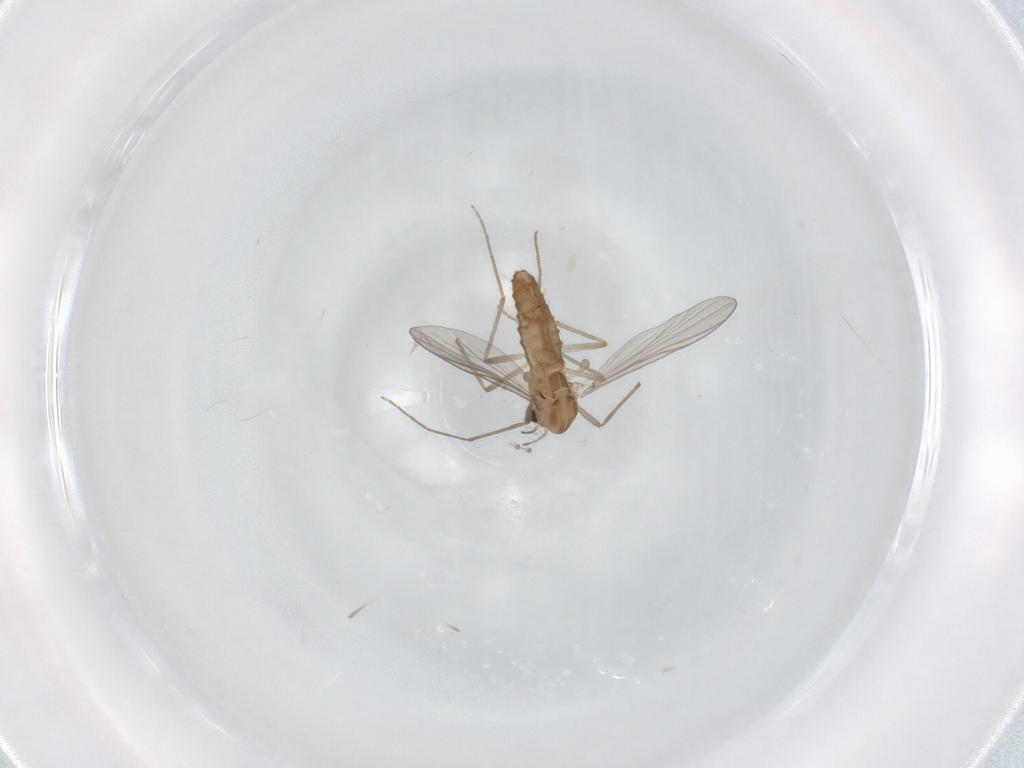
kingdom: Animalia
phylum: Arthropoda
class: Insecta
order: Diptera
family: Chironomidae
